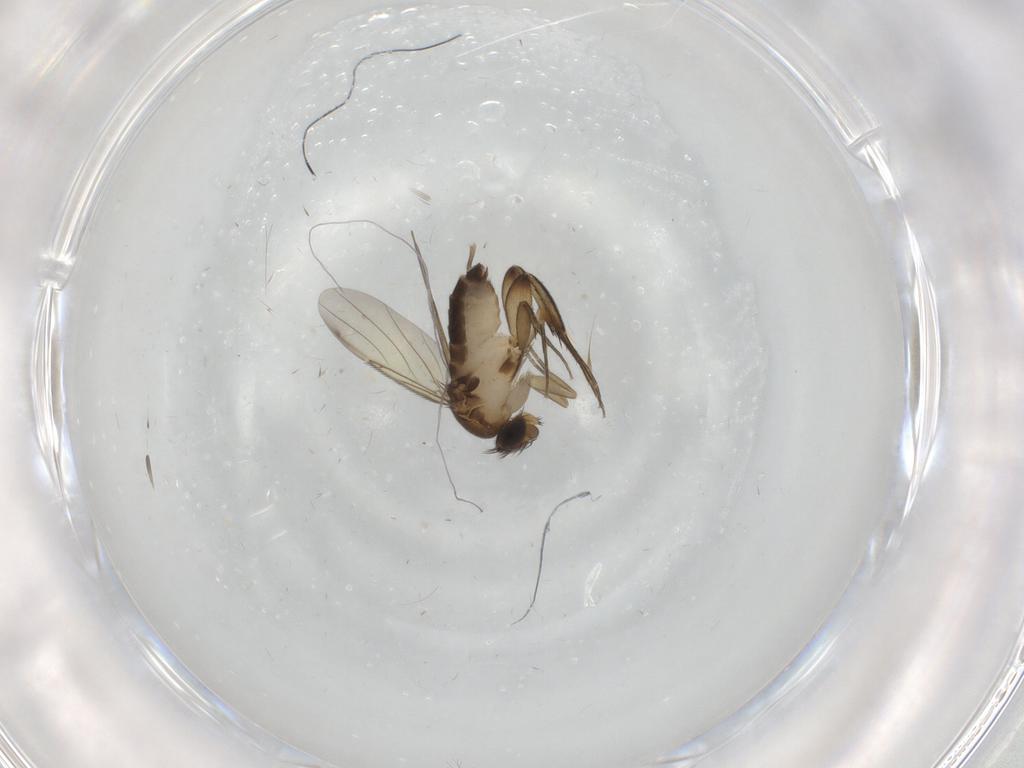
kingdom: Animalia
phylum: Arthropoda
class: Insecta
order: Diptera
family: Phoridae
